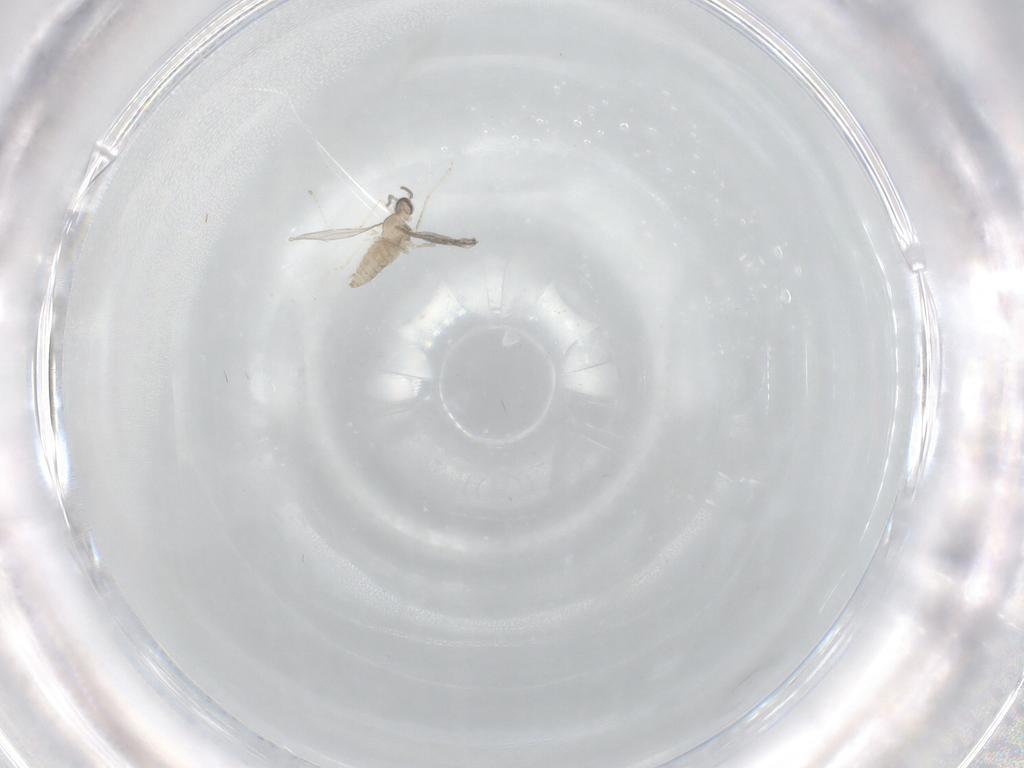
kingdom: Animalia
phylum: Arthropoda
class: Insecta
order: Diptera
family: Cecidomyiidae
